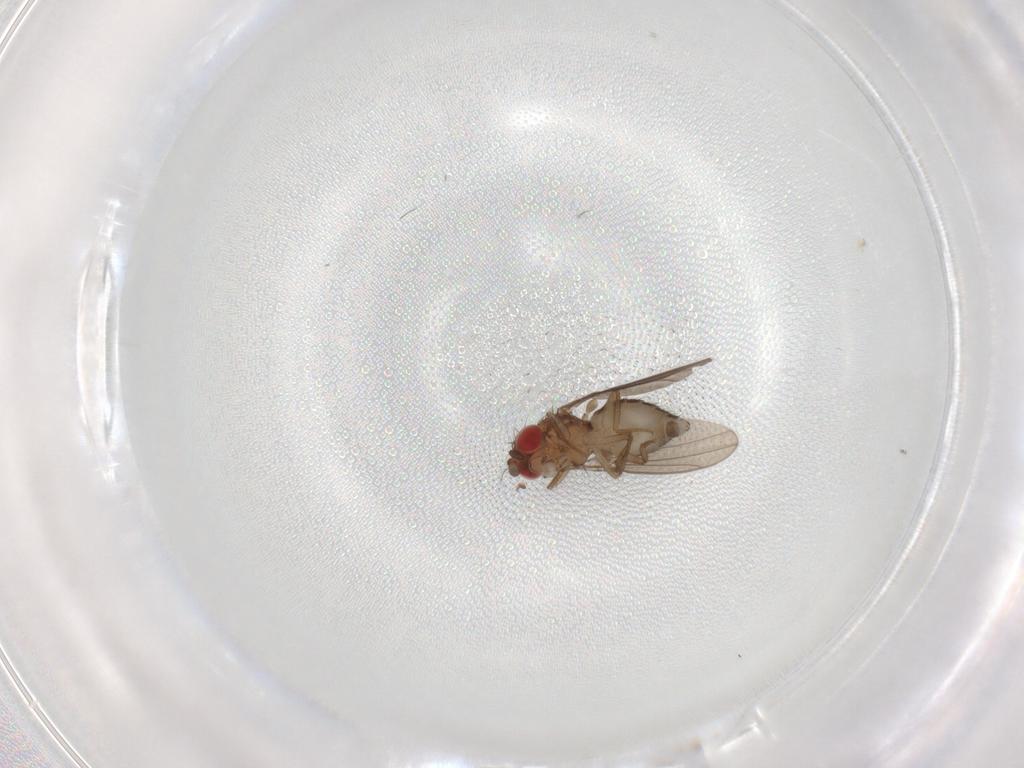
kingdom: Animalia
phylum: Arthropoda
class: Insecta
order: Diptera
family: Drosophilidae
